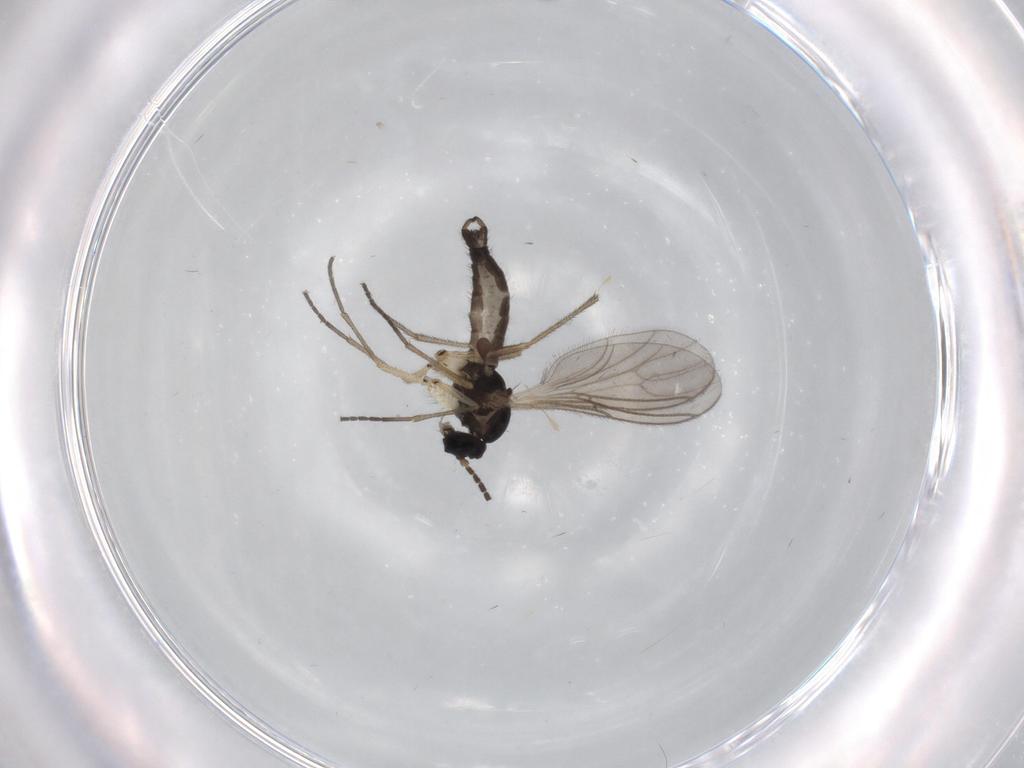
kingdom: Animalia
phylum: Arthropoda
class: Insecta
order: Diptera
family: Sciaridae
